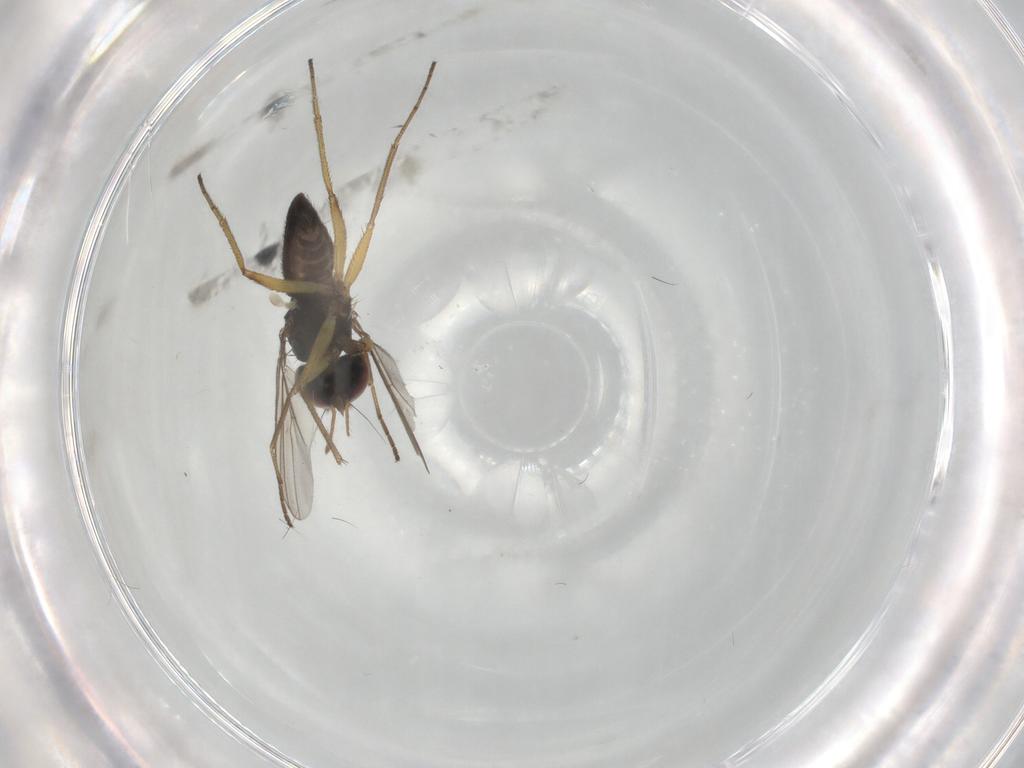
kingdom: Animalia
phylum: Arthropoda
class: Insecta
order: Diptera
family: Dolichopodidae
